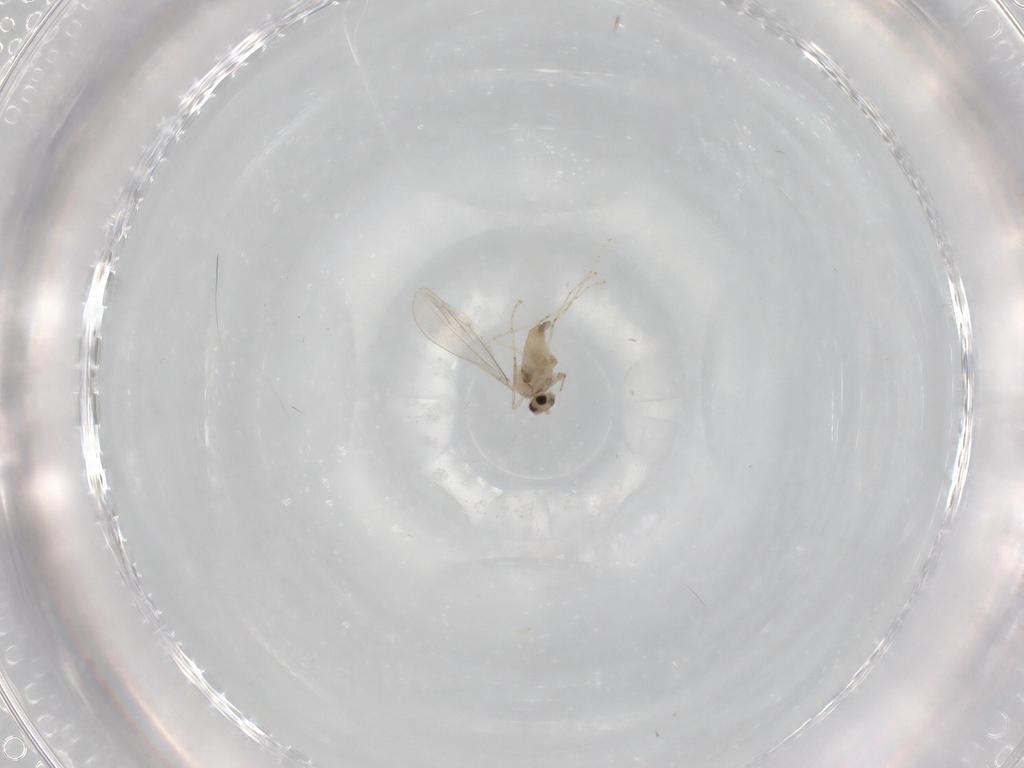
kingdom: Animalia
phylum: Arthropoda
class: Insecta
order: Diptera
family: Cecidomyiidae
